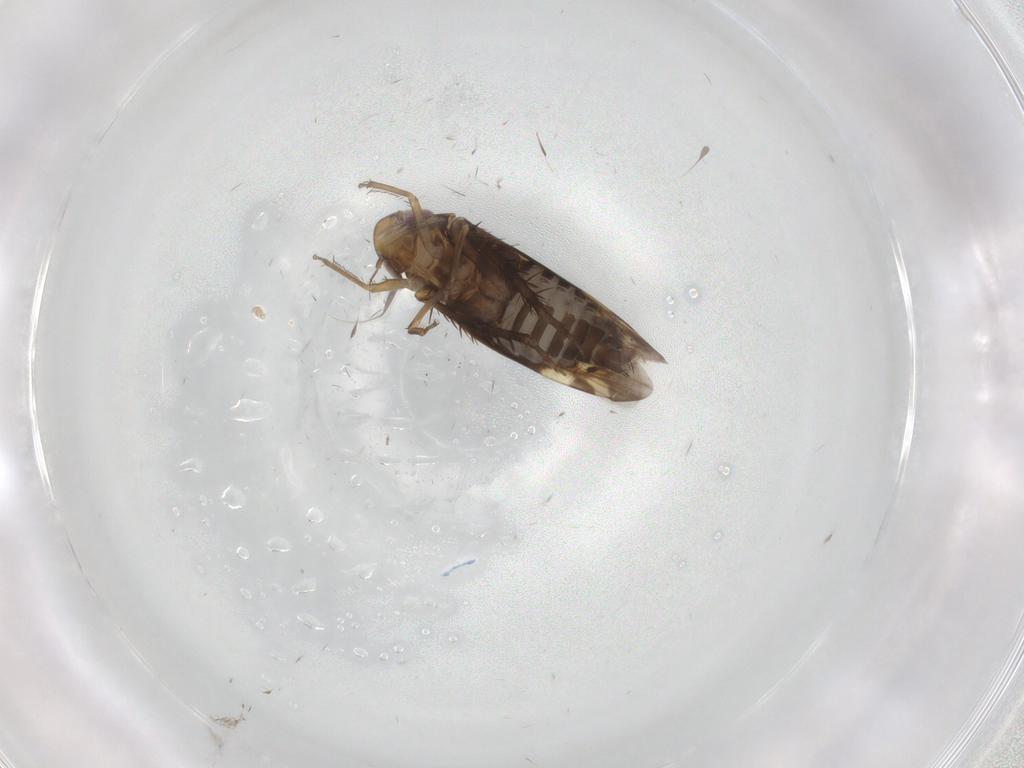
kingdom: Animalia
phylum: Arthropoda
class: Insecta
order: Hemiptera
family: Cicadellidae
